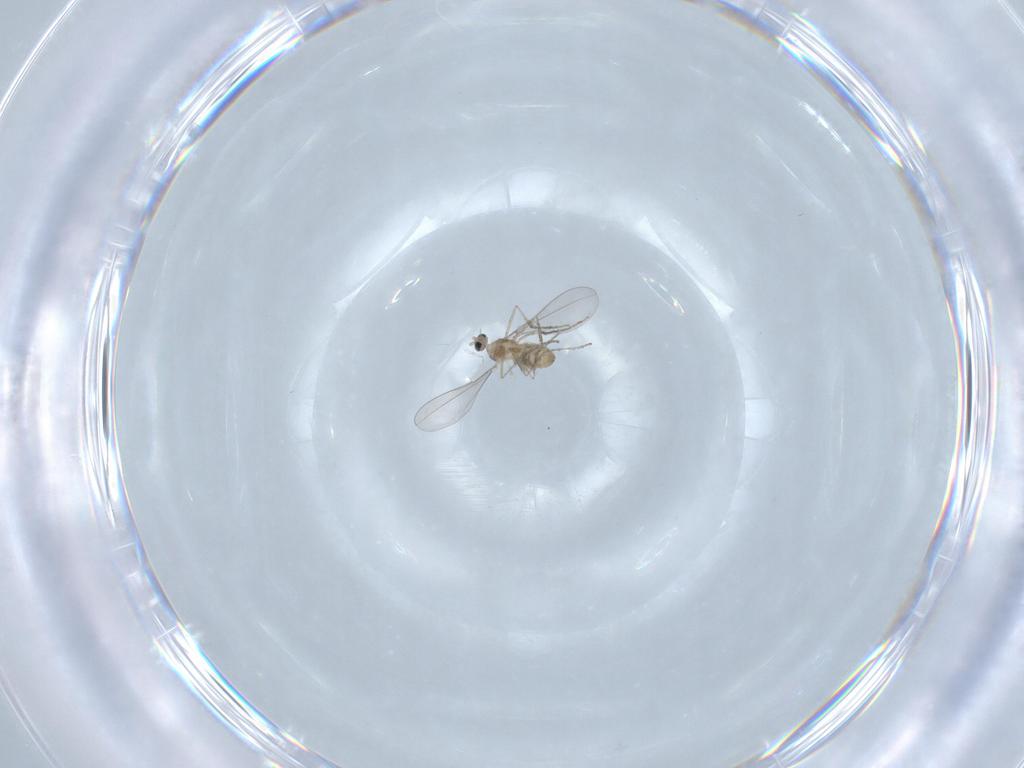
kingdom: Animalia
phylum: Arthropoda
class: Insecta
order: Diptera
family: Cecidomyiidae
